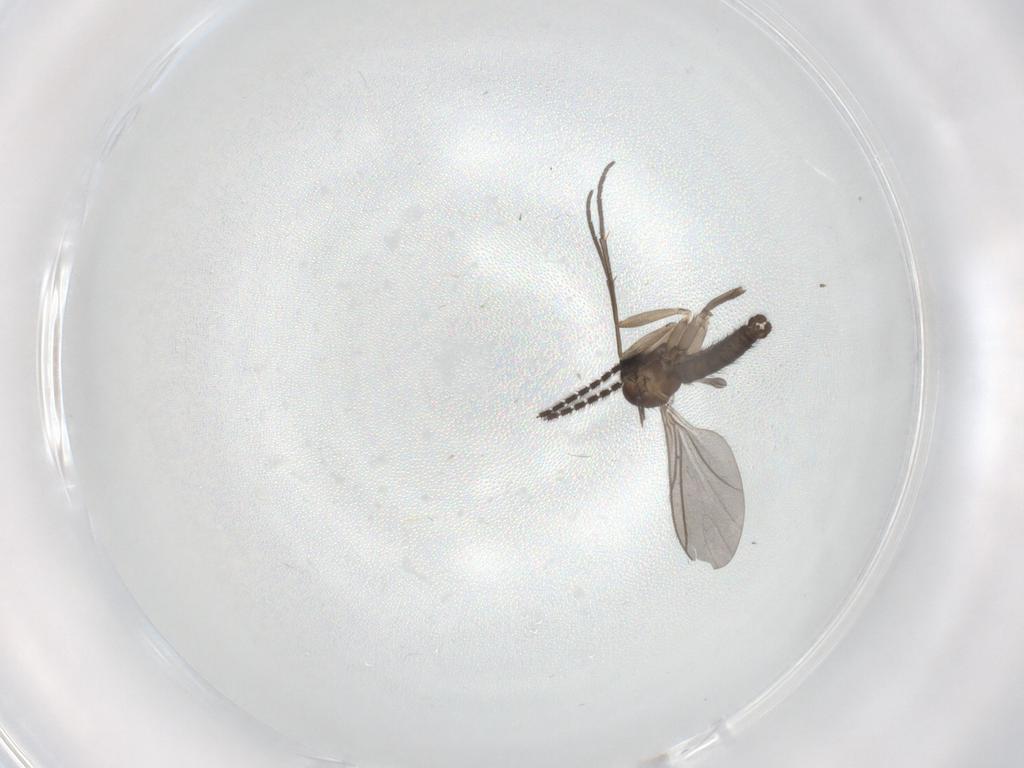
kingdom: Animalia
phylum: Arthropoda
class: Insecta
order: Diptera
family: Sciaridae
